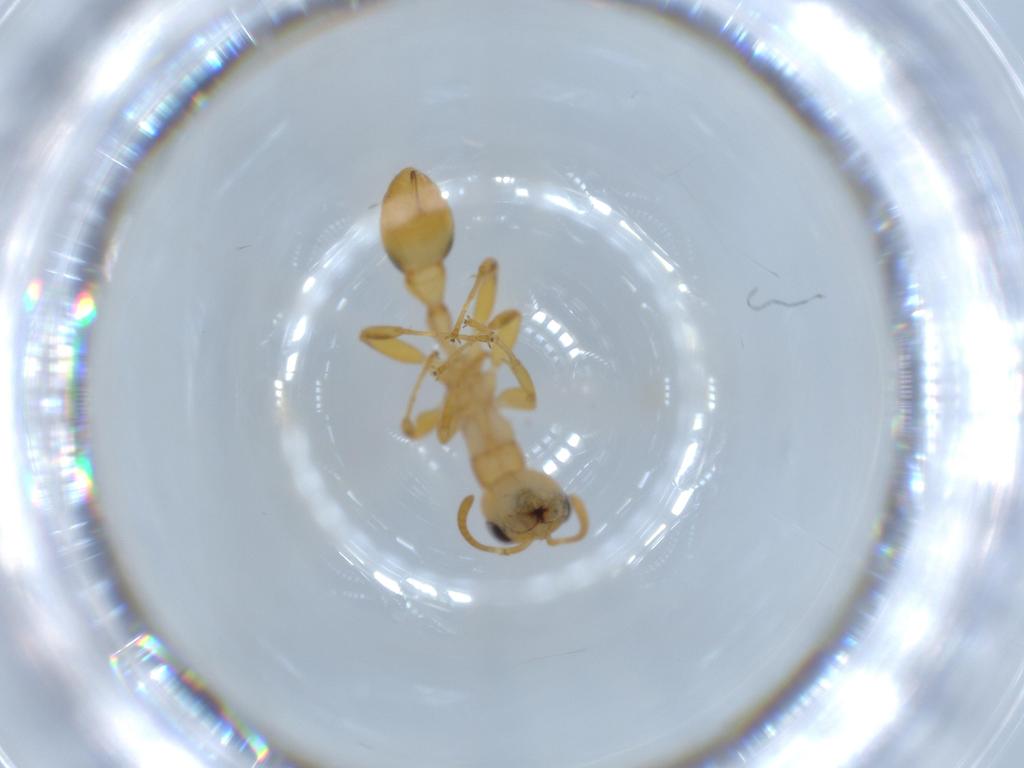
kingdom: Animalia
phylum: Arthropoda
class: Insecta
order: Hymenoptera
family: Formicidae
